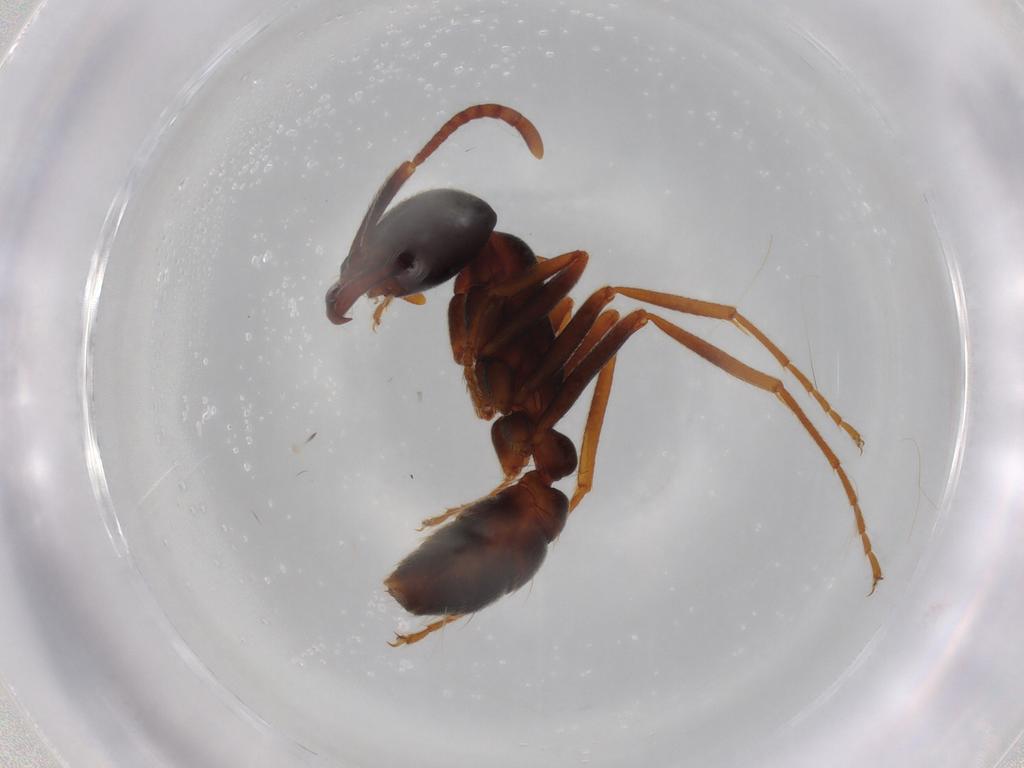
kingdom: Animalia
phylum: Arthropoda
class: Insecta
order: Hymenoptera
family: Formicidae
